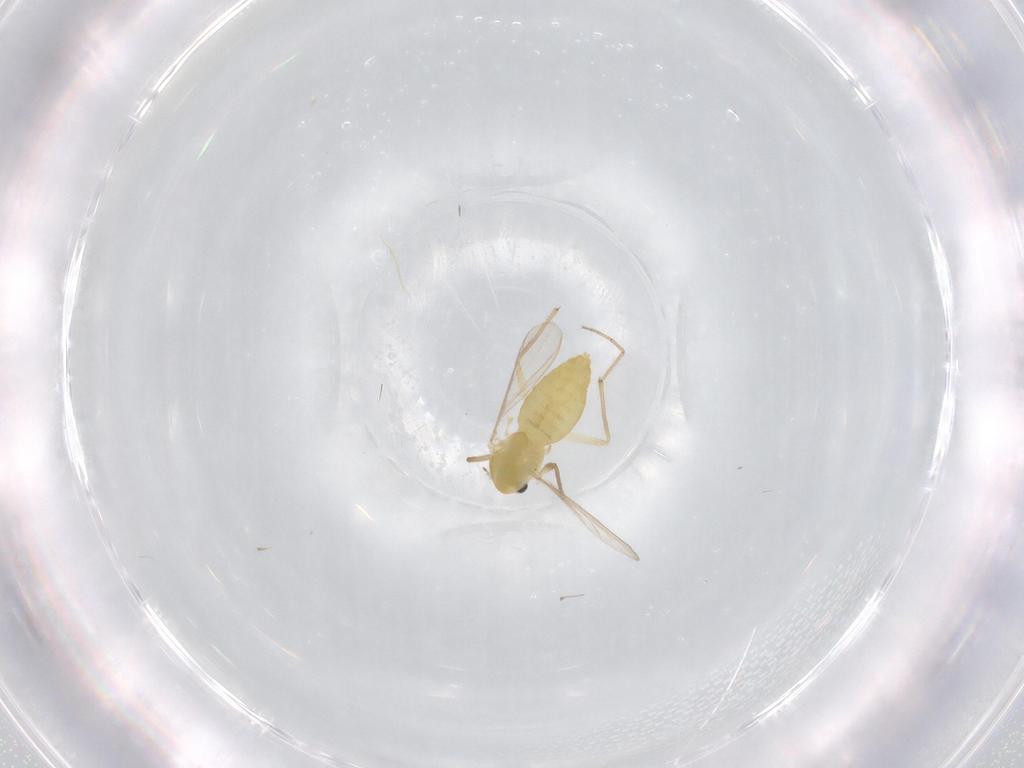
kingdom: Animalia
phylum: Arthropoda
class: Insecta
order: Diptera
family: Chironomidae
